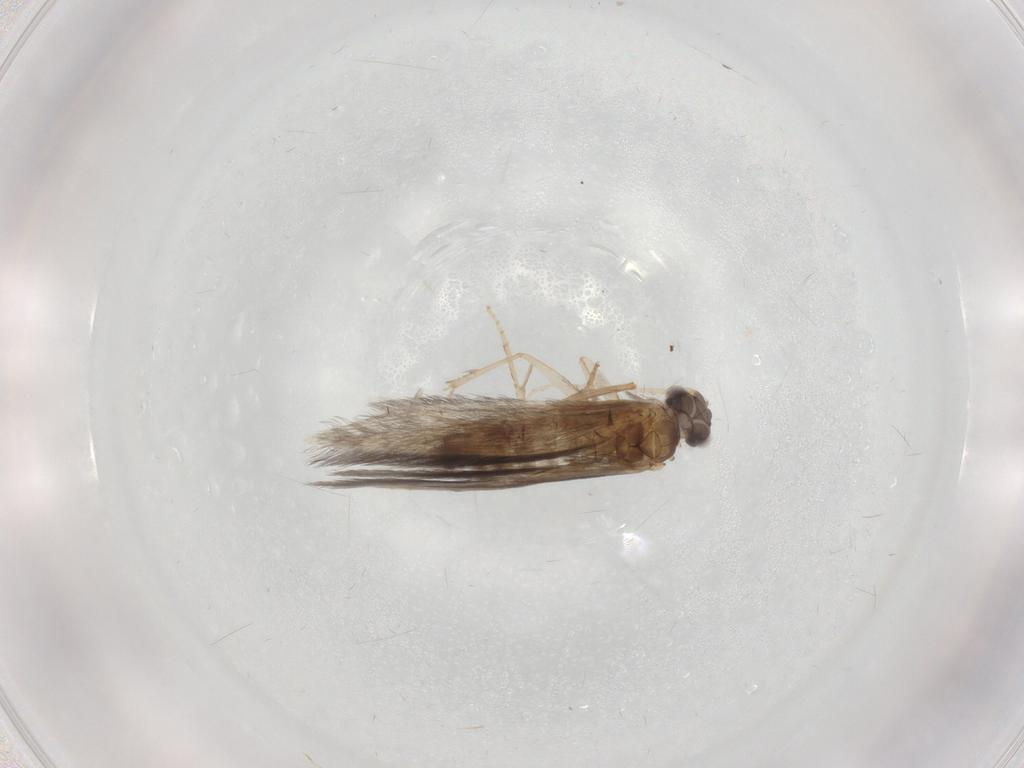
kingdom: Animalia
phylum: Arthropoda
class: Insecta
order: Trichoptera
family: Hydroptilidae
